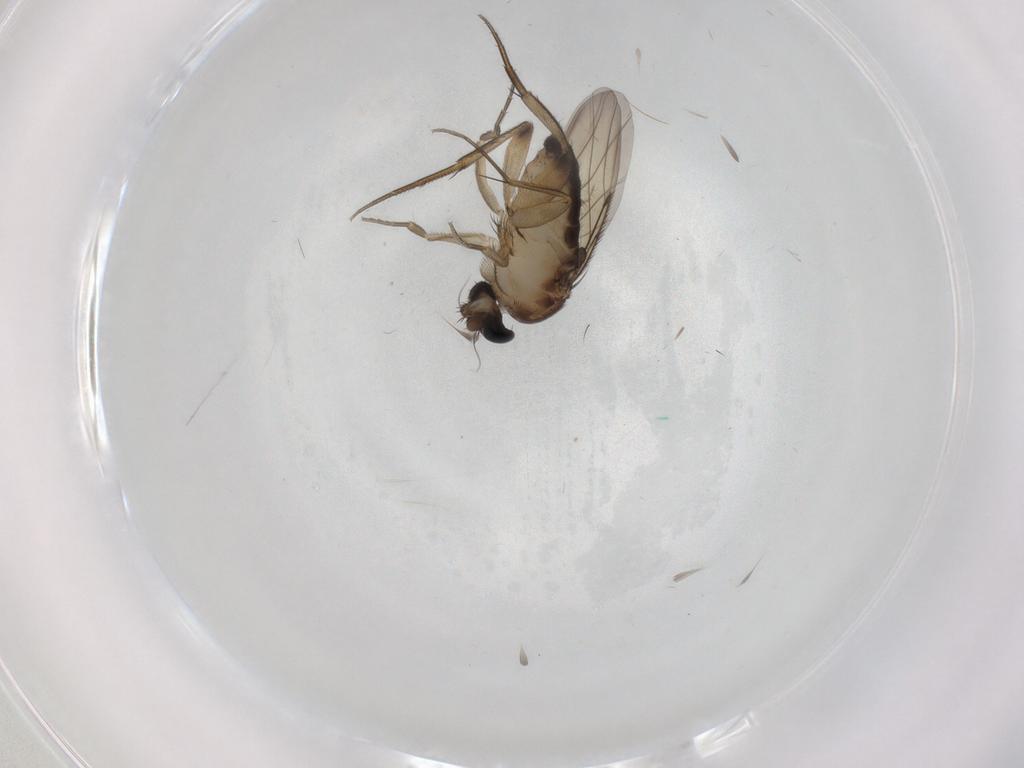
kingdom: Animalia
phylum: Arthropoda
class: Insecta
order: Diptera
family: Phoridae
